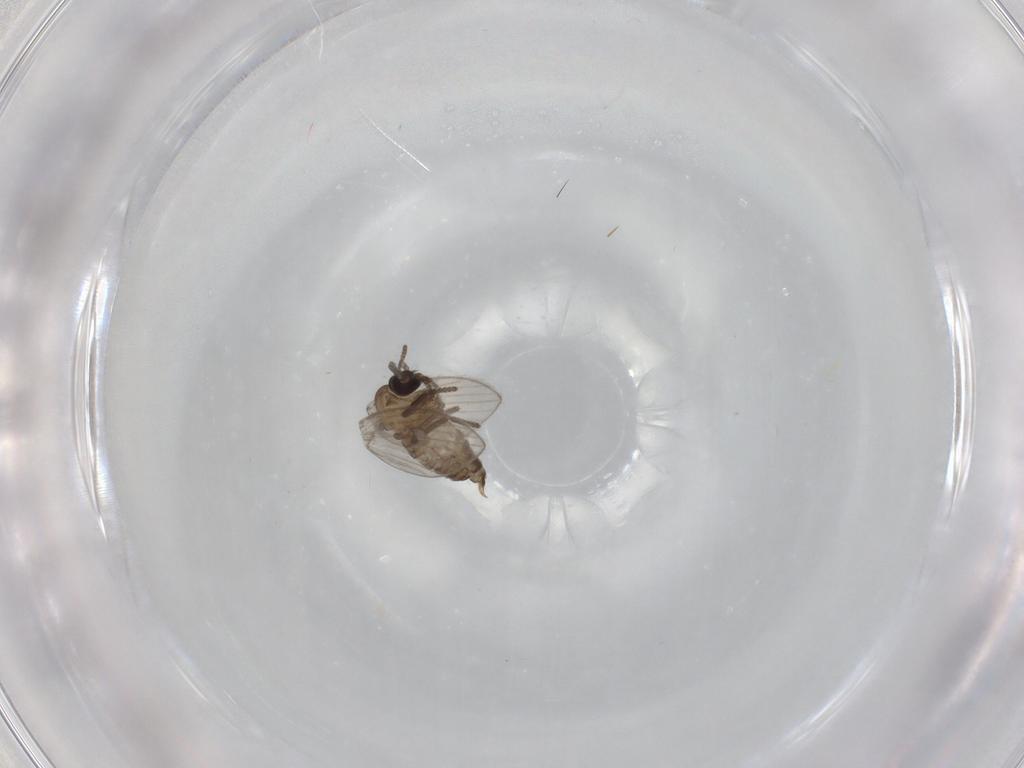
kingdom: Animalia
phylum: Arthropoda
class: Insecta
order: Diptera
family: Psychodidae
